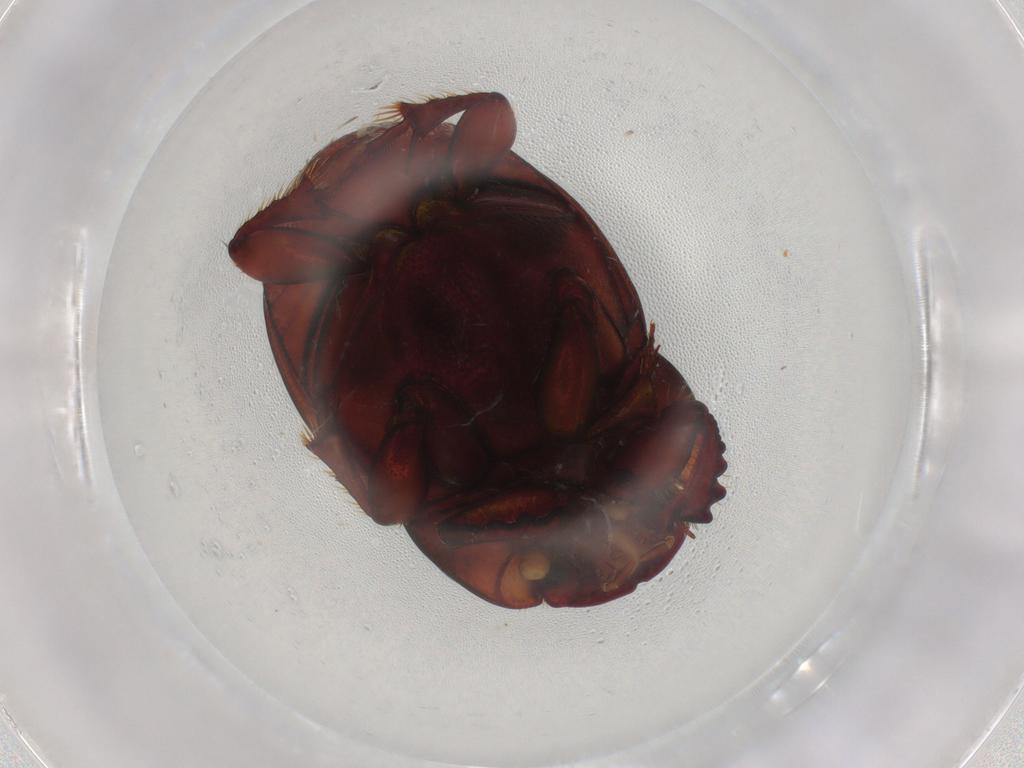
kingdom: Animalia
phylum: Arthropoda
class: Insecta
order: Coleoptera
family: Scarabaeidae
